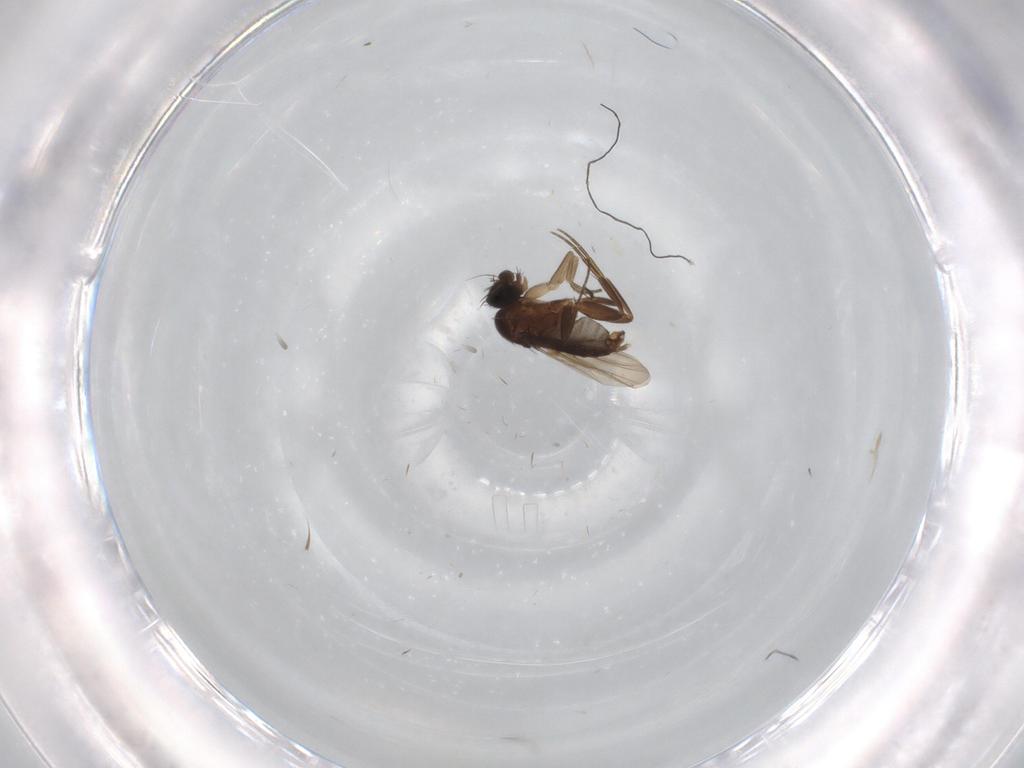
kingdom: Animalia
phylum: Arthropoda
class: Insecta
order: Diptera
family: Phoridae
